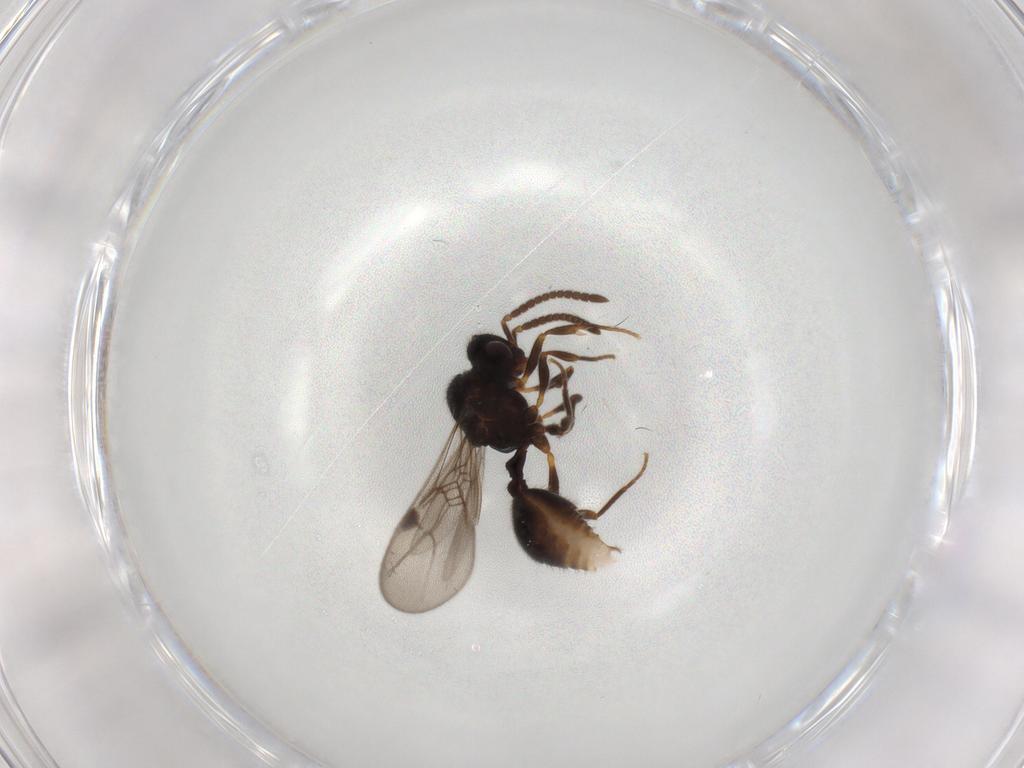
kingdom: Animalia
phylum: Arthropoda
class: Insecta
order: Hymenoptera
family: Formicidae
